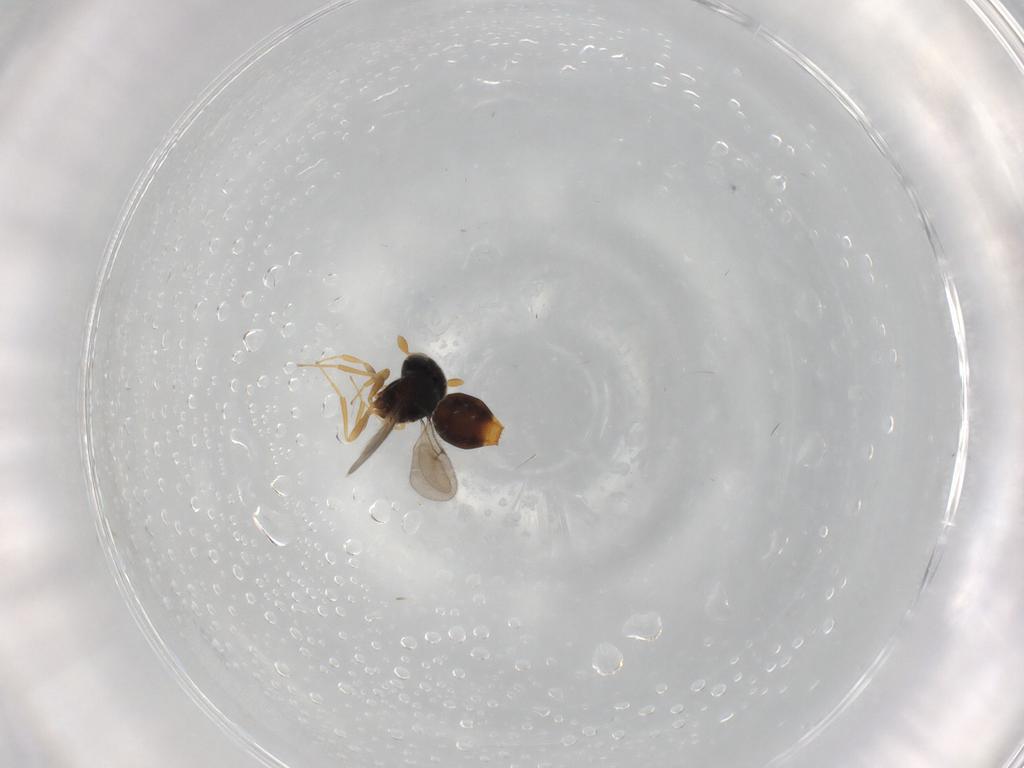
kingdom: Animalia
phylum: Arthropoda
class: Insecta
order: Hymenoptera
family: Scelionidae
